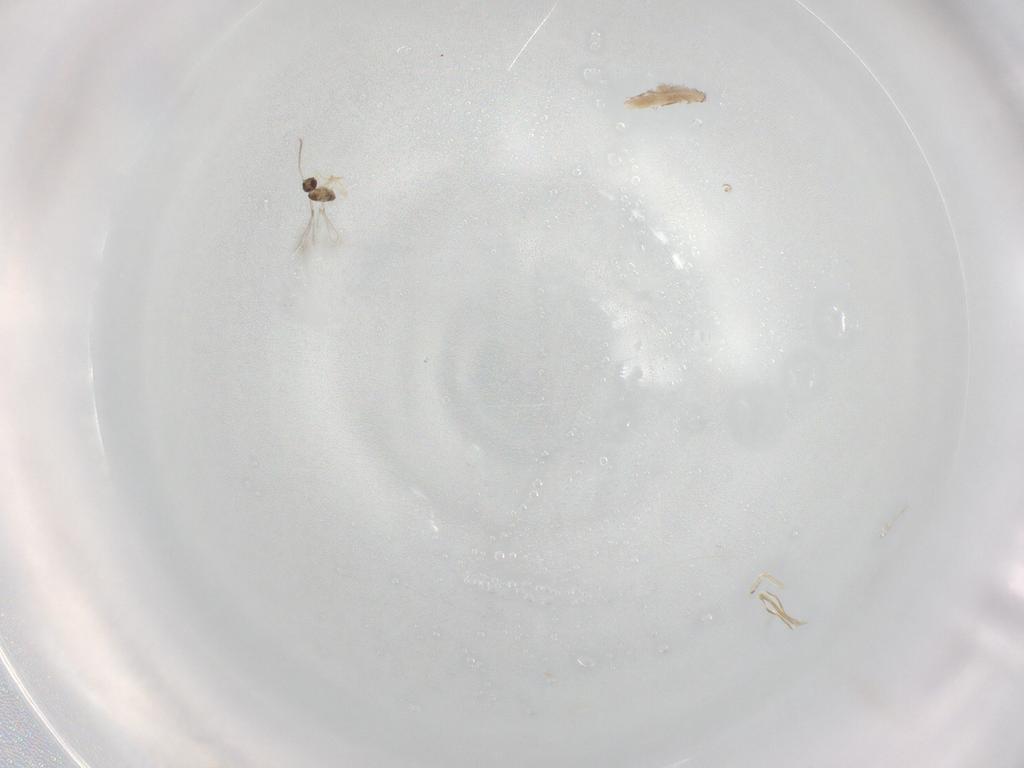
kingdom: Animalia
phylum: Arthropoda
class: Insecta
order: Hymenoptera
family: Mymaridae
